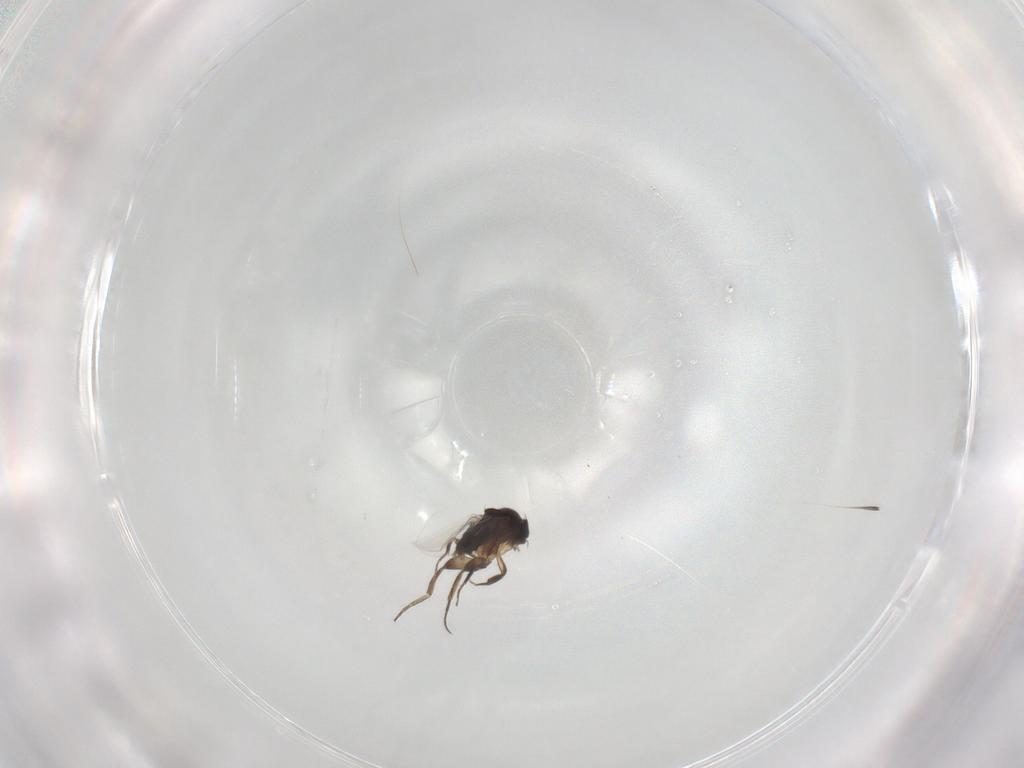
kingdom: Animalia
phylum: Arthropoda
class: Insecta
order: Diptera
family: Phoridae
